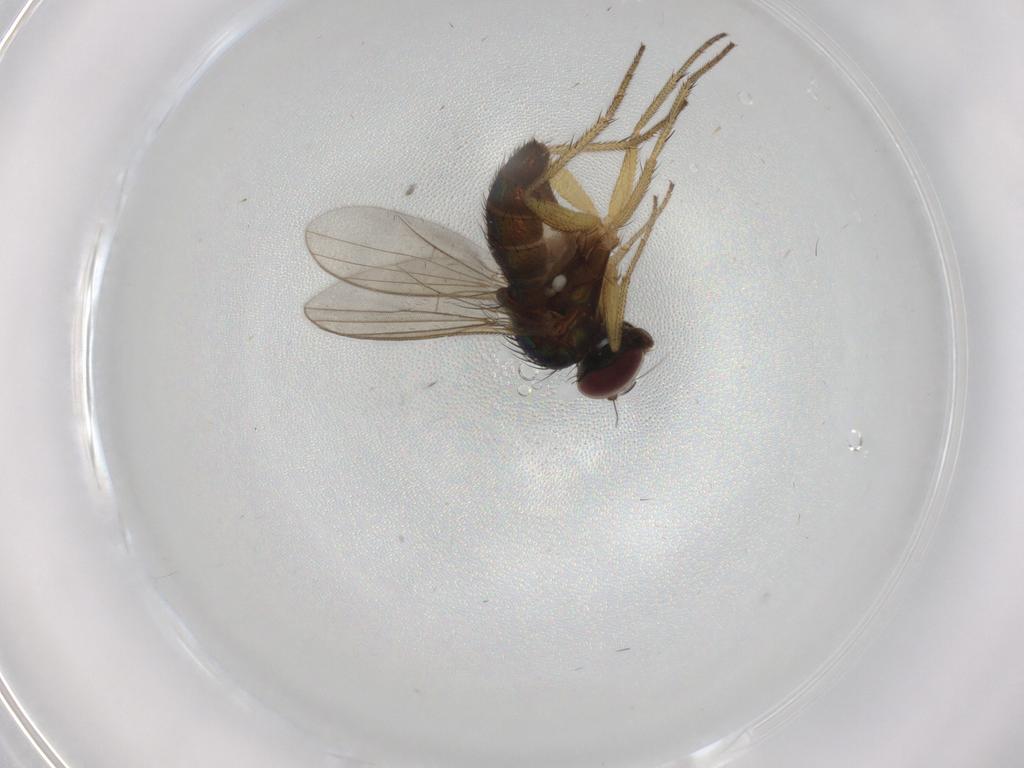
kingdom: Animalia
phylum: Arthropoda
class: Insecta
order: Diptera
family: Dolichopodidae
